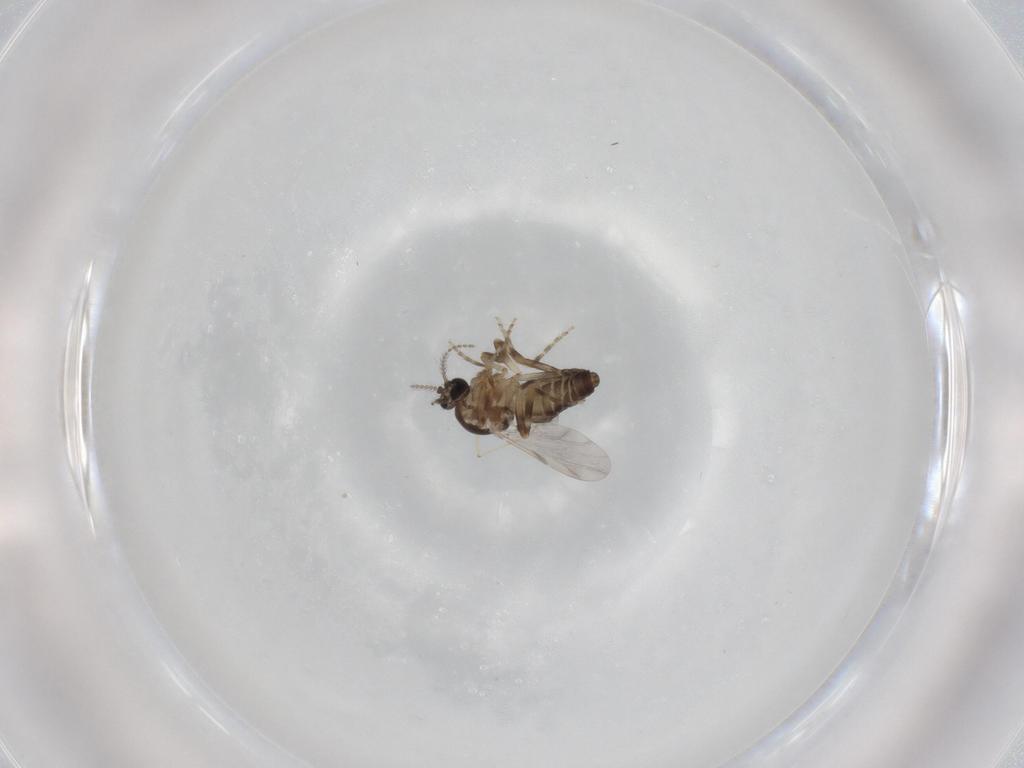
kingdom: Animalia
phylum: Arthropoda
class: Insecta
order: Diptera
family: Ceratopogonidae
